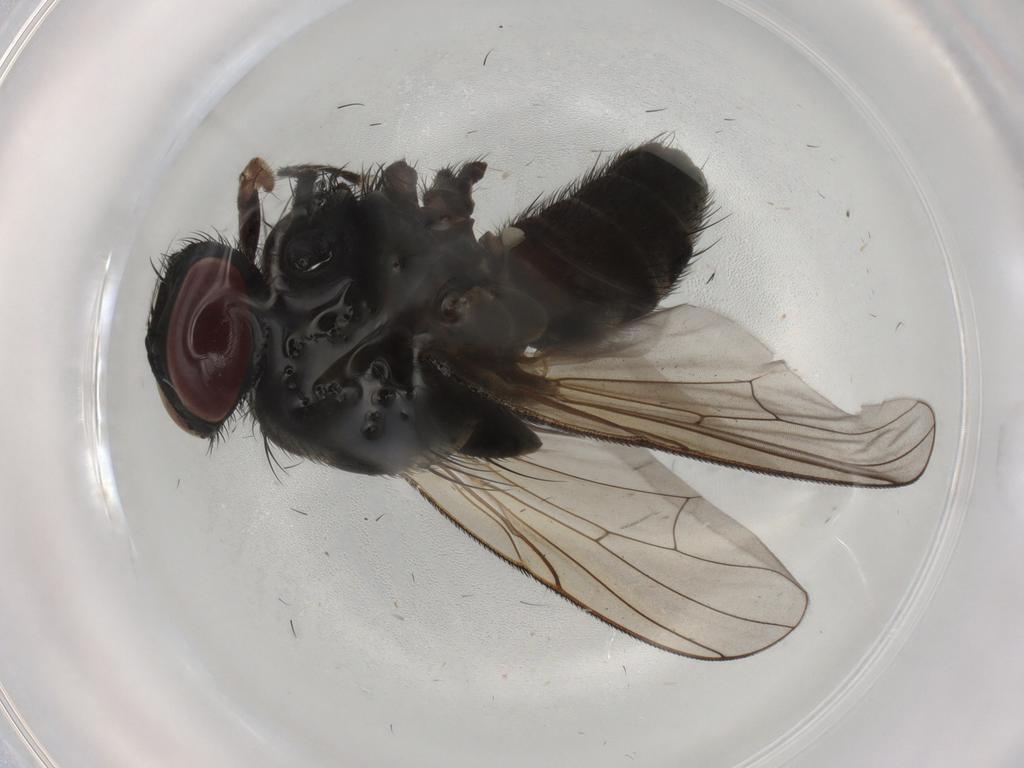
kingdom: Animalia
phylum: Arthropoda
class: Insecta
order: Diptera
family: Muscidae
